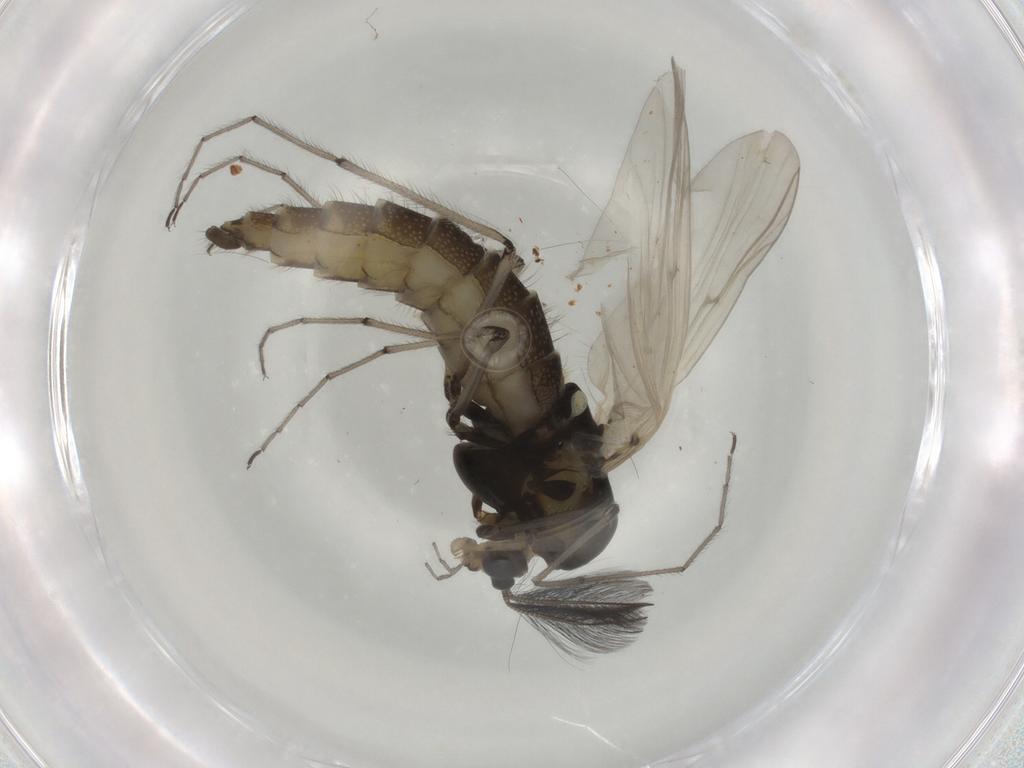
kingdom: Animalia
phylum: Arthropoda
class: Insecta
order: Diptera
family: Chironomidae
